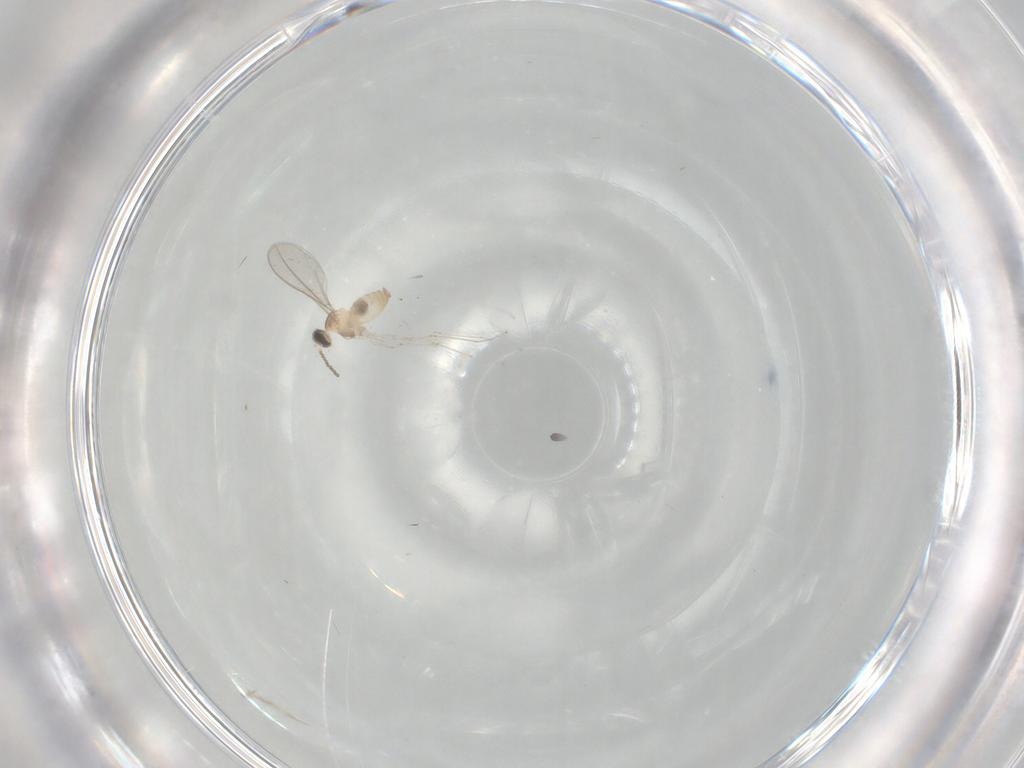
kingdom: Animalia
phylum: Arthropoda
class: Insecta
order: Diptera
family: Cecidomyiidae
